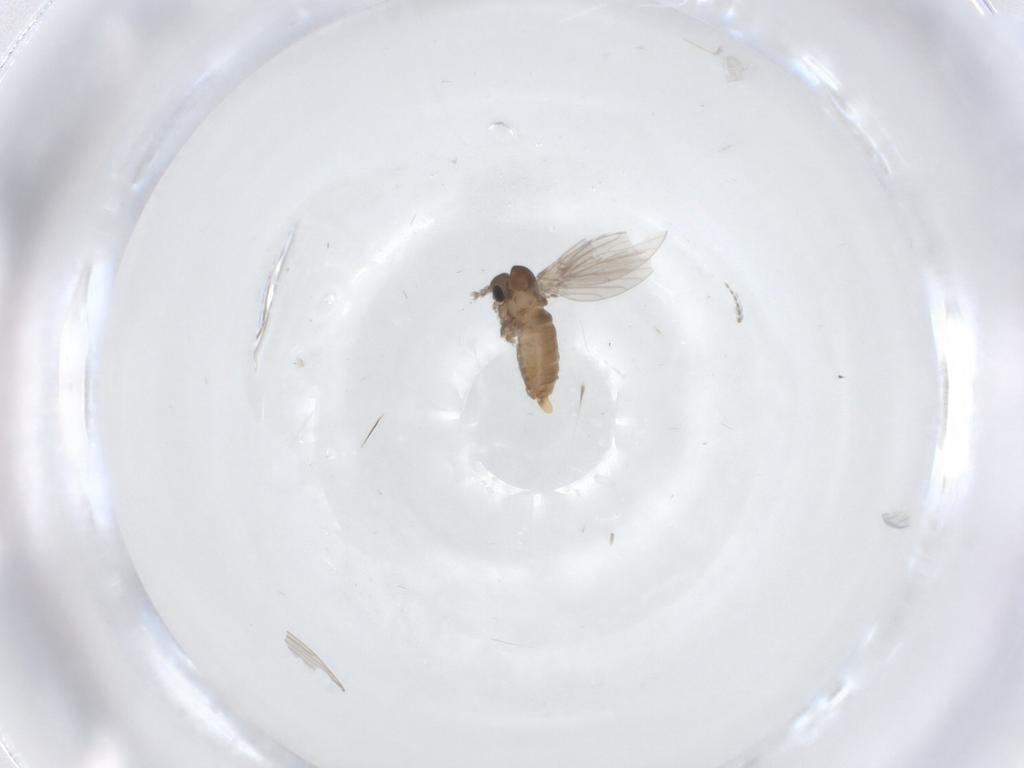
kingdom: Animalia
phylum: Arthropoda
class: Insecta
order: Diptera
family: Psychodidae
